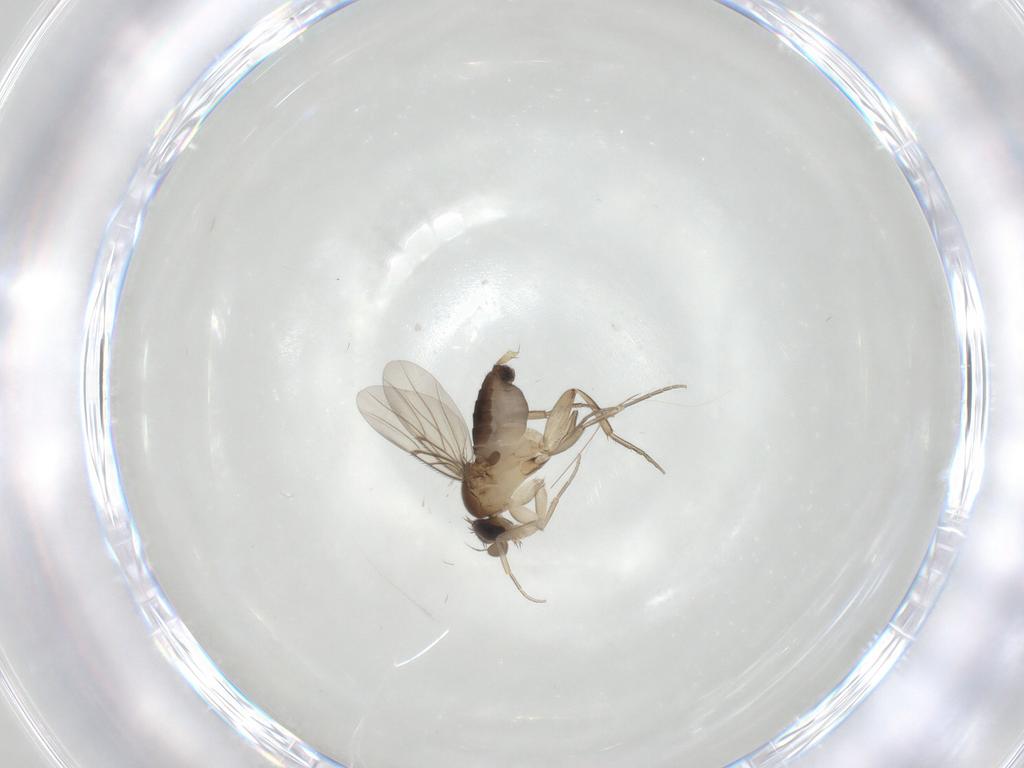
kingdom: Animalia
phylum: Arthropoda
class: Insecta
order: Diptera
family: Phoridae
